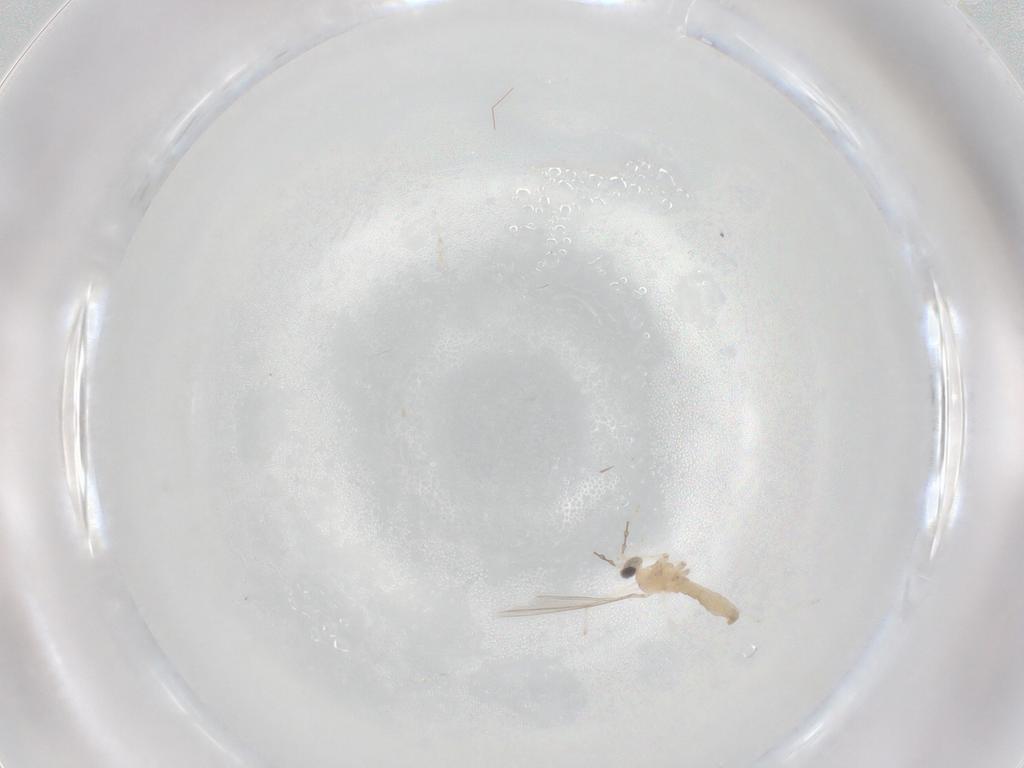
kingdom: Animalia
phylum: Arthropoda
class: Insecta
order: Diptera
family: Cecidomyiidae
